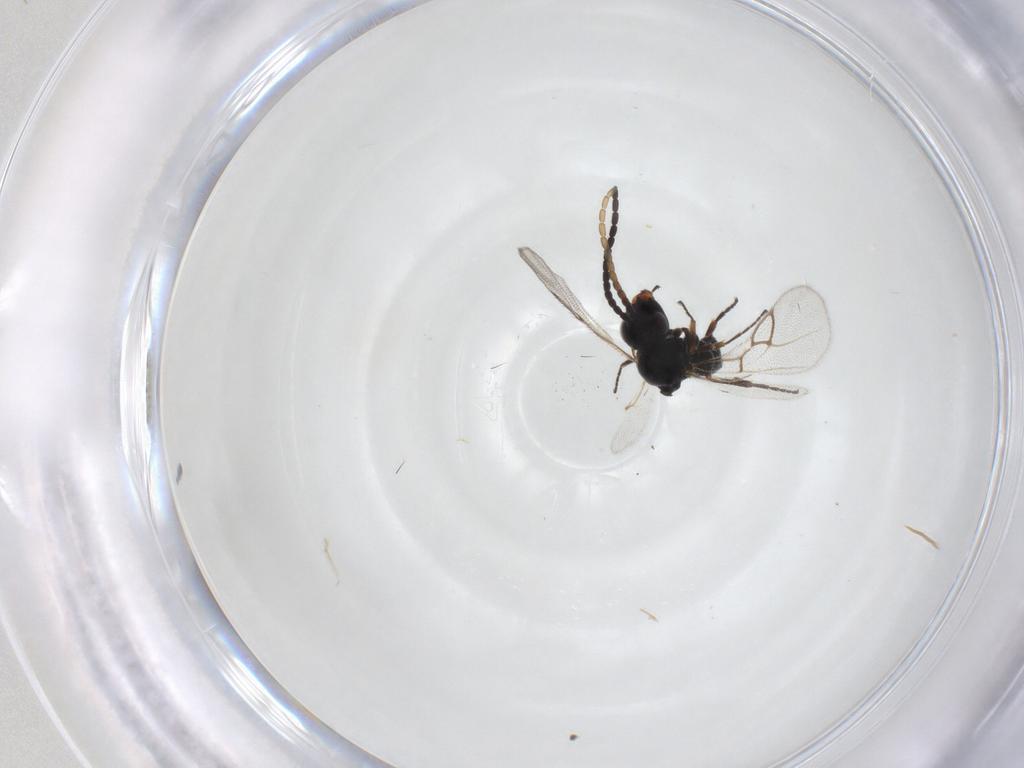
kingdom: Animalia
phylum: Arthropoda
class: Insecta
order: Hymenoptera
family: Figitidae
